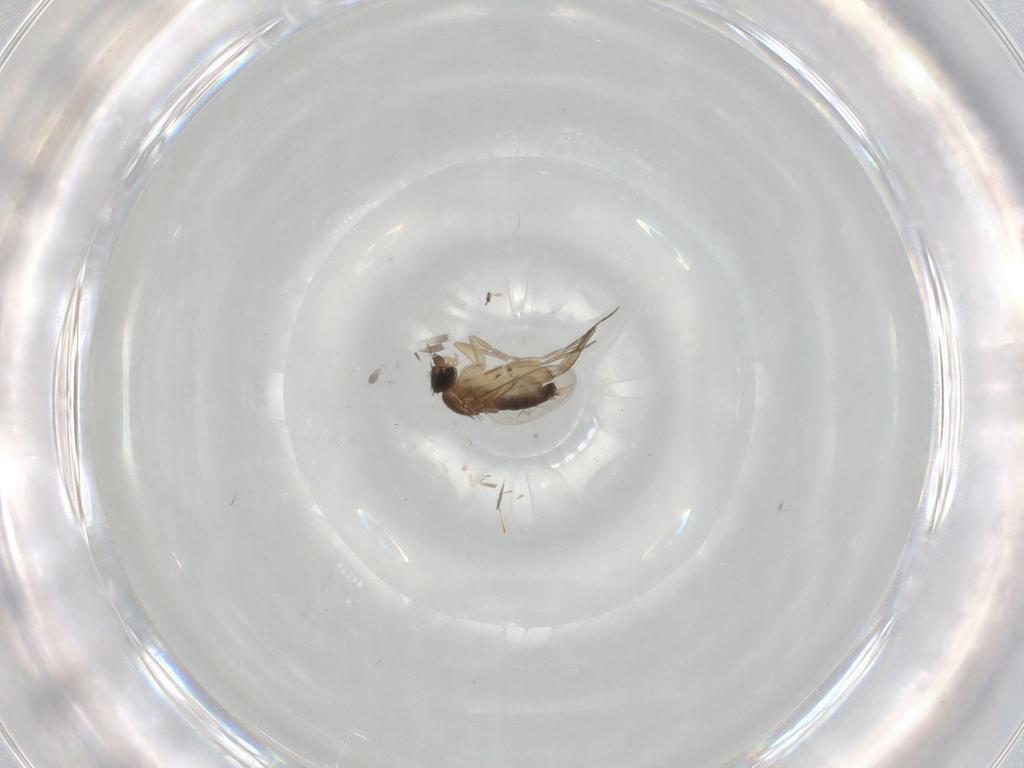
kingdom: Animalia
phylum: Arthropoda
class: Insecta
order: Diptera
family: Phoridae
